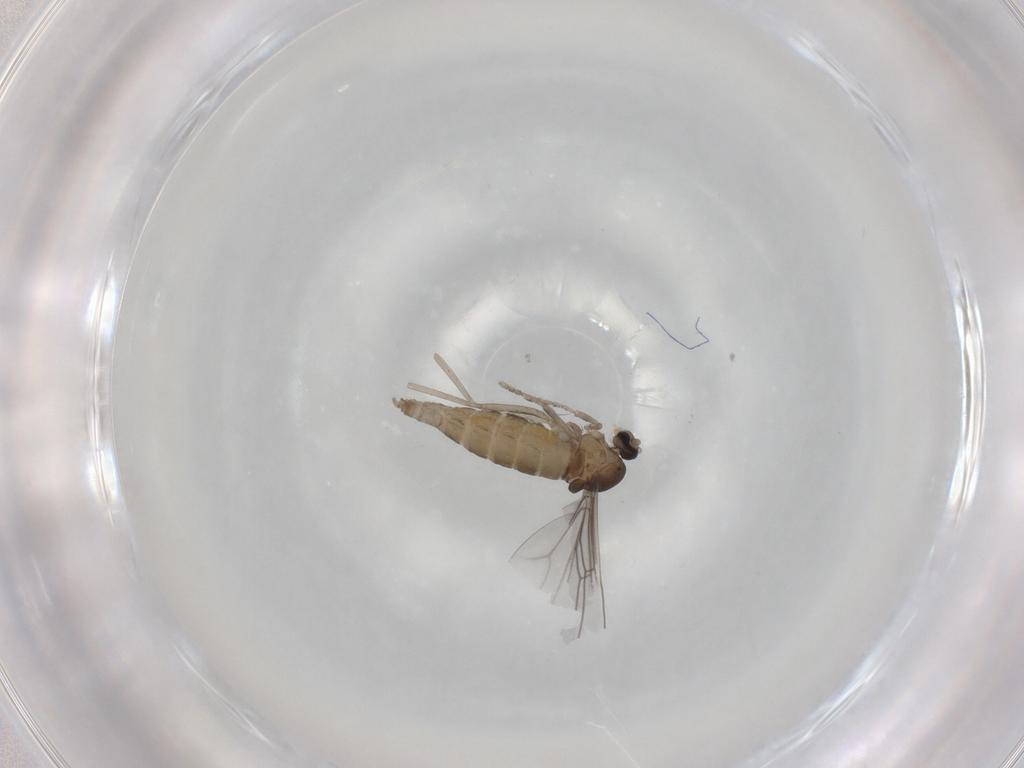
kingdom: Animalia
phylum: Arthropoda
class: Insecta
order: Diptera
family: Cecidomyiidae
